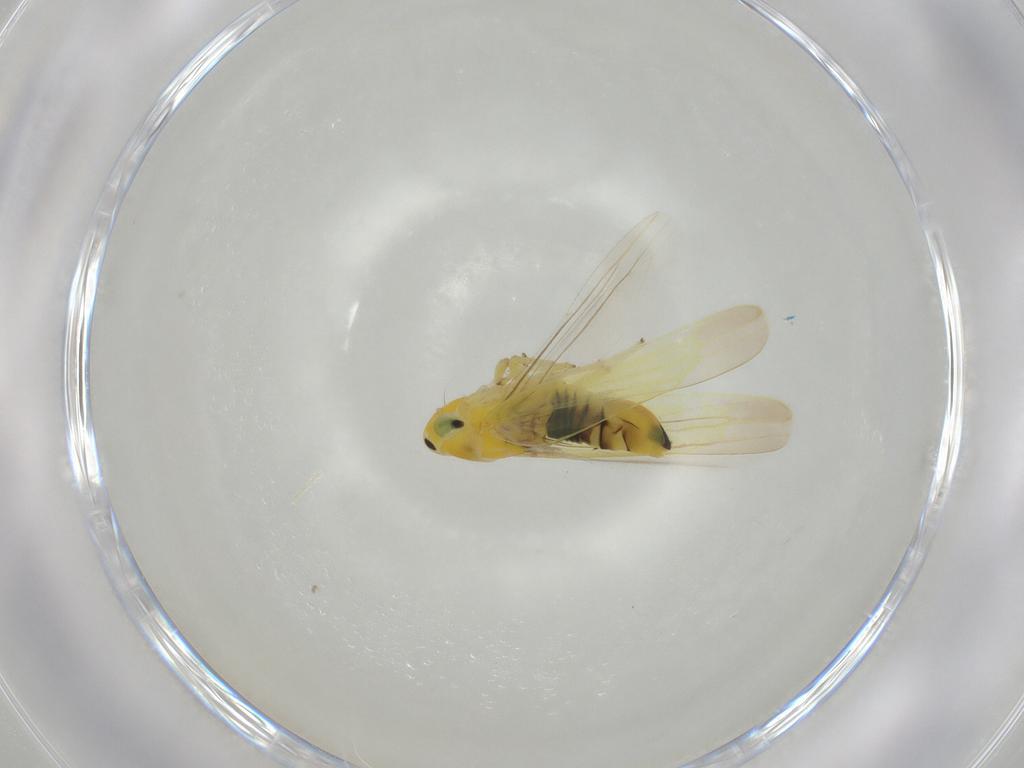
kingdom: Animalia
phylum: Arthropoda
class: Insecta
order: Hemiptera
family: Cicadellidae
